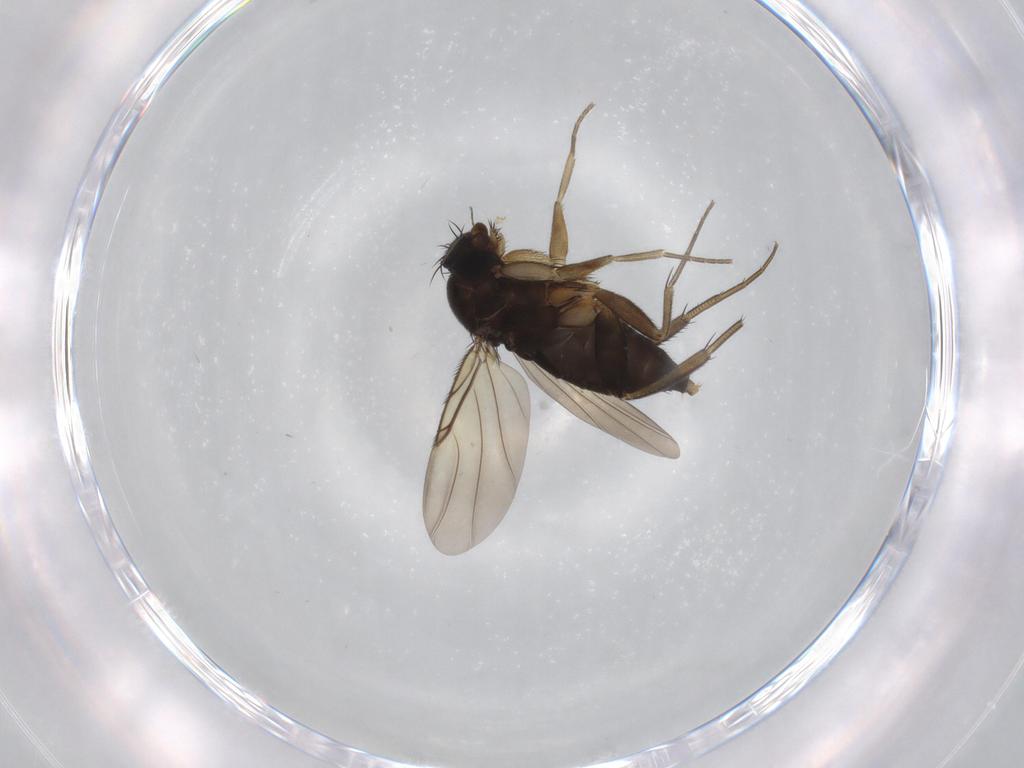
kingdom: Animalia
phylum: Arthropoda
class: Insecta
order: Diptera
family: Phoridae
